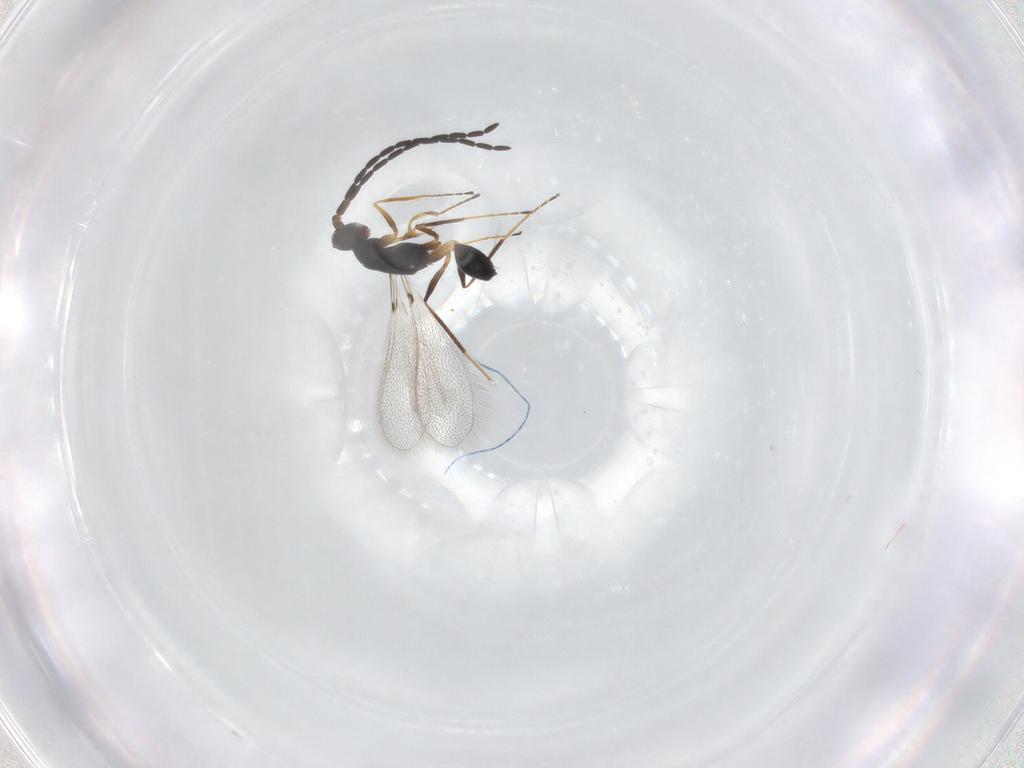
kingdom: Animalia
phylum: Arthropoda
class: Insecta
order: Hymenoptera
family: Mymaridae
